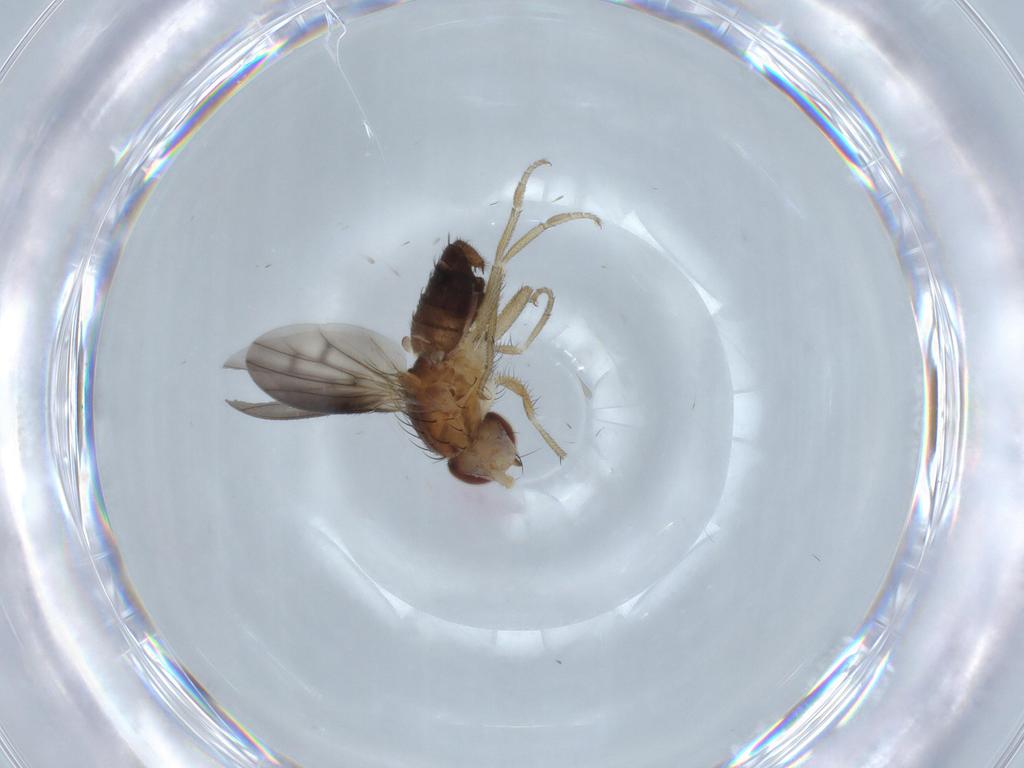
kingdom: Animalia
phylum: Arthropoda
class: Insecta
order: Diptera
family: Heleomyzidae
